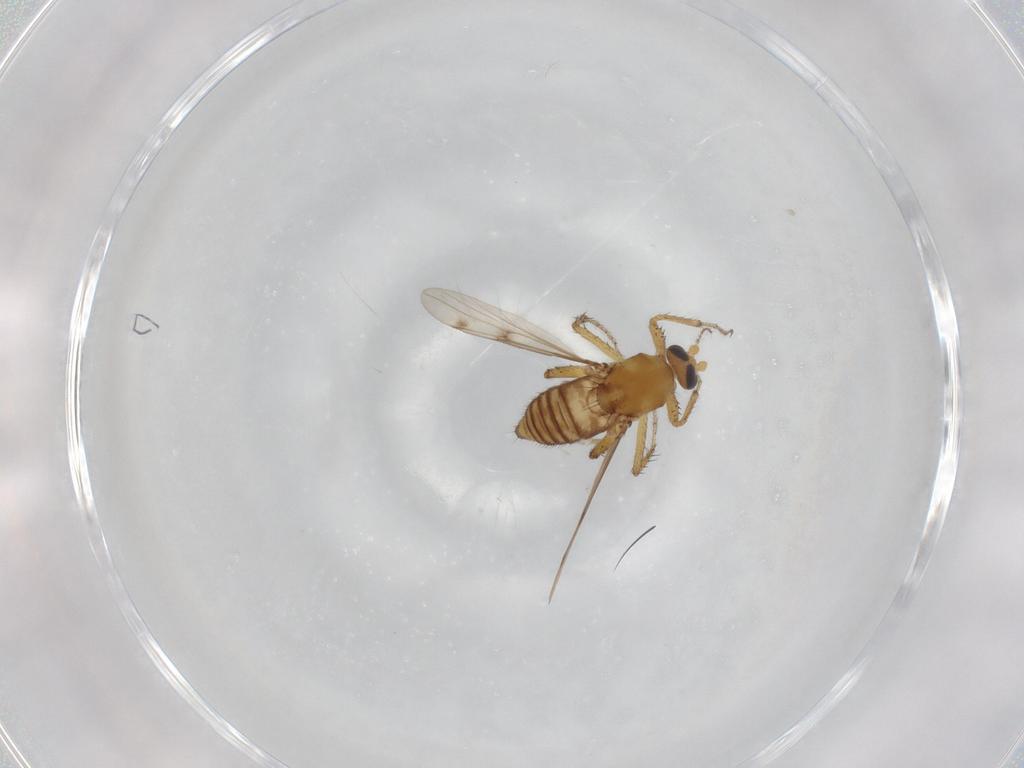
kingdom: Animalia
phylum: Arthropoda
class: Insecta
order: Diptera
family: Ceratopogonidae
